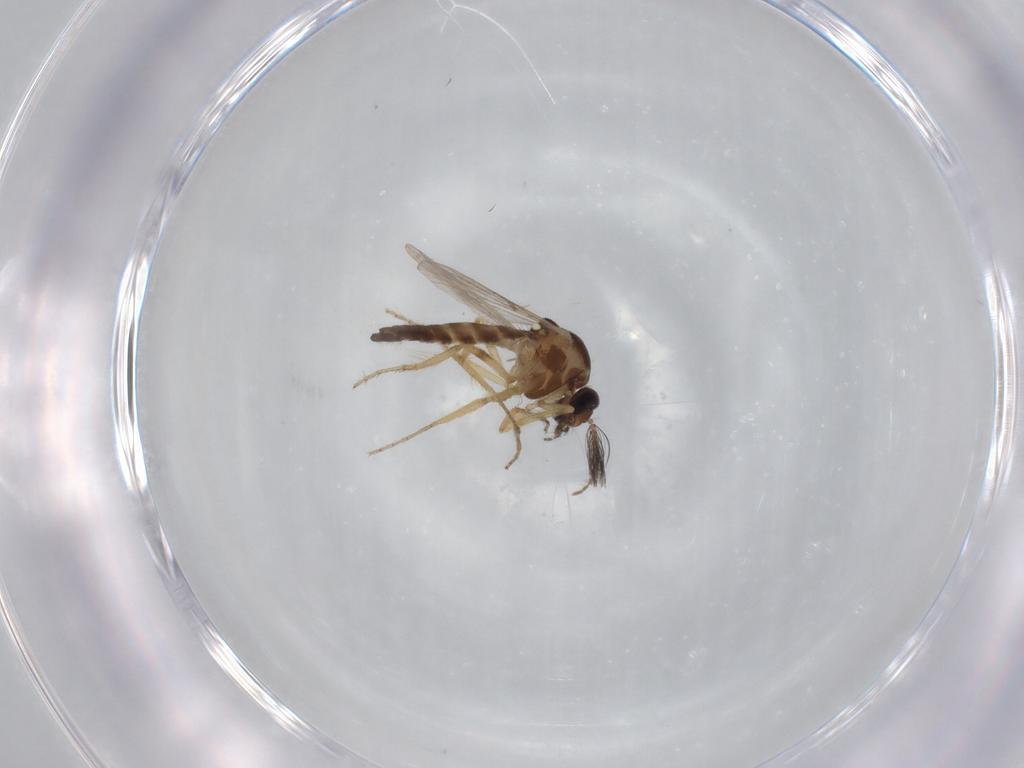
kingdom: Animalia
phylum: Arthropoda
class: Insecta
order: Diptera
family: Ceratopogonidae
